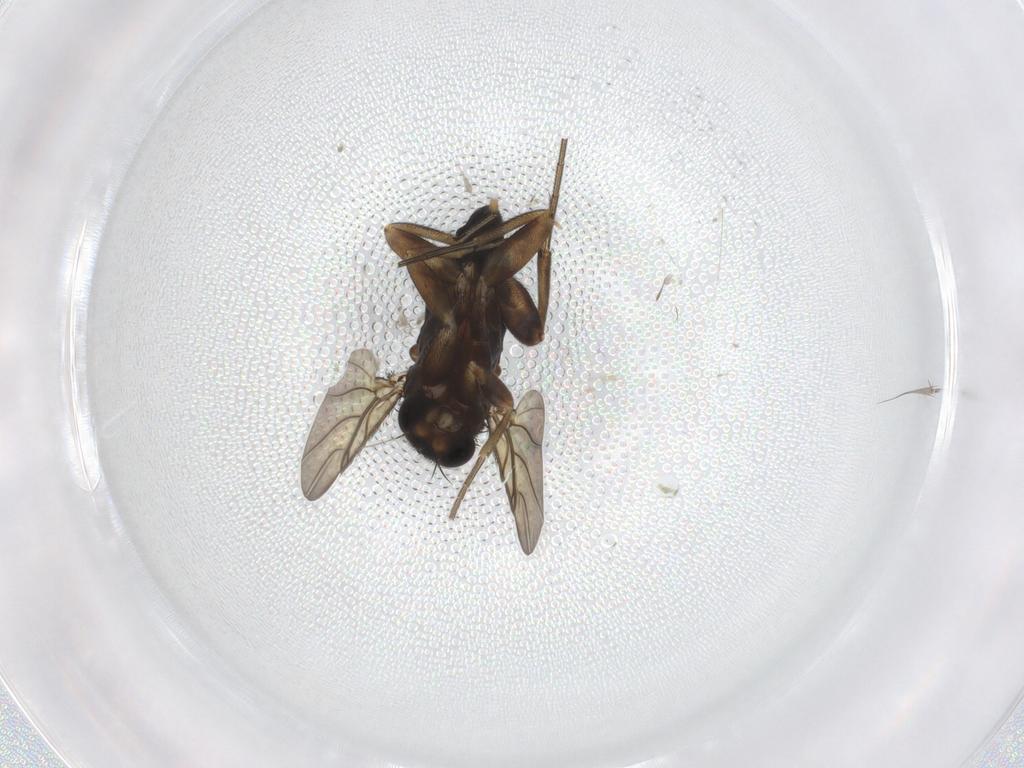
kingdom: Animalia
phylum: Arthropoda
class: Insecta
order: Diptera
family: Phoridae
